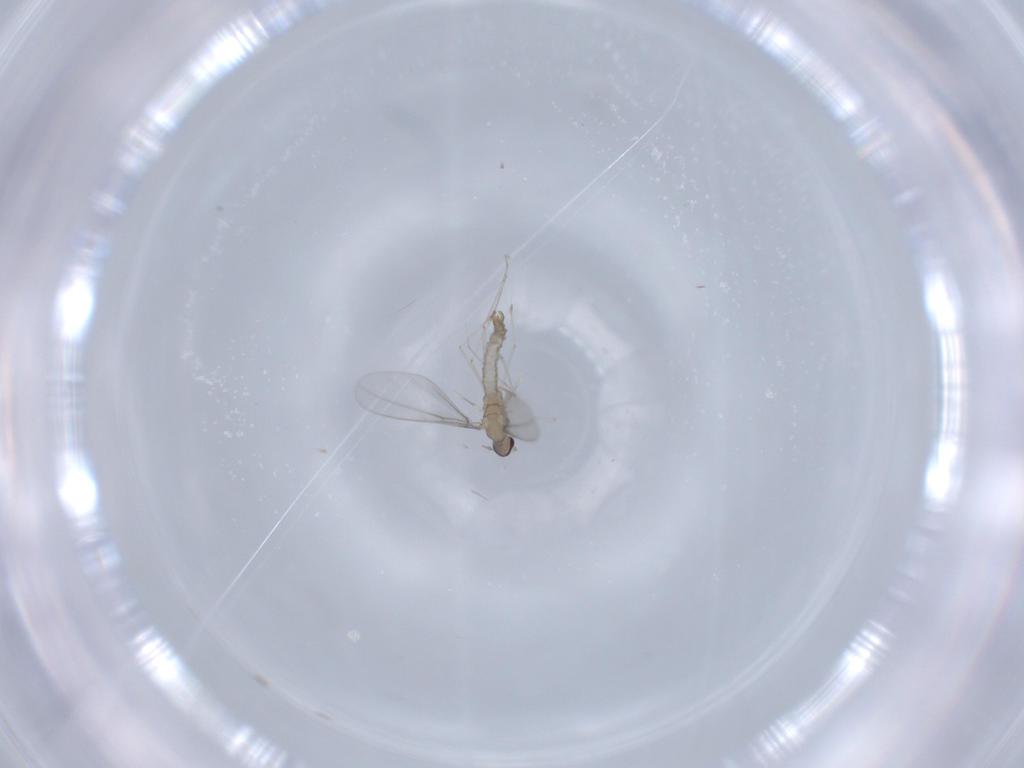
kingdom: Animalia
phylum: Arthropoda
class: Insecta
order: Diptera
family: Cecidomyiidae
